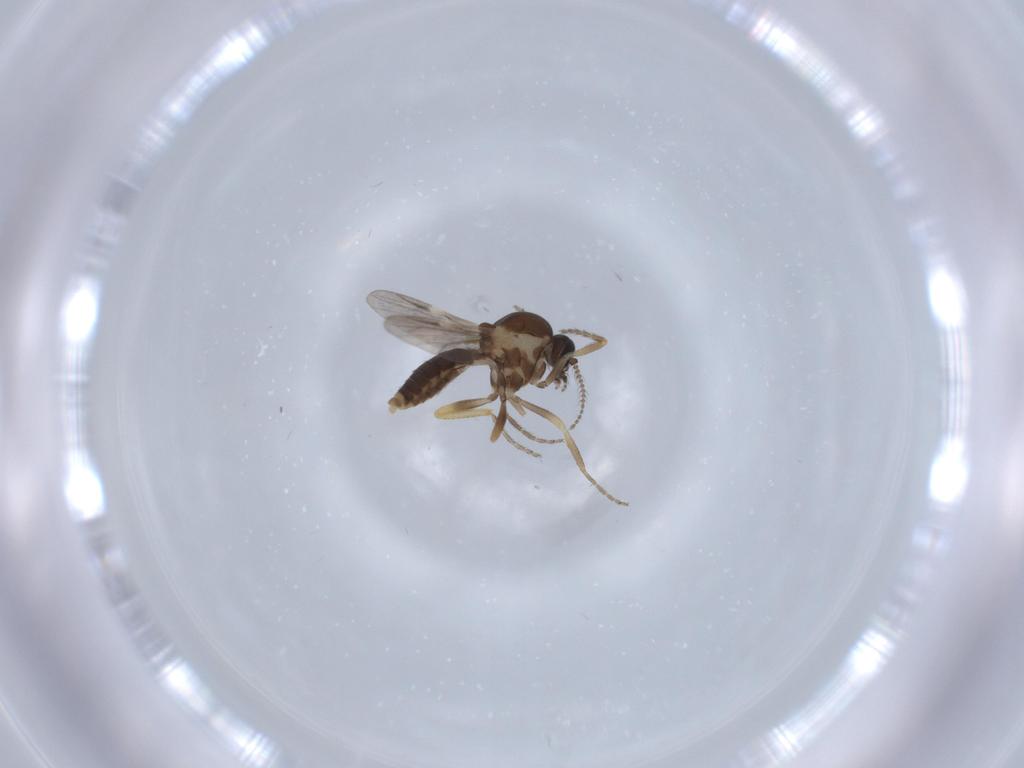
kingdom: Animalia
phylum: Arthropoda
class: Insecta
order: Diptera
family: Ceratopogonidae
